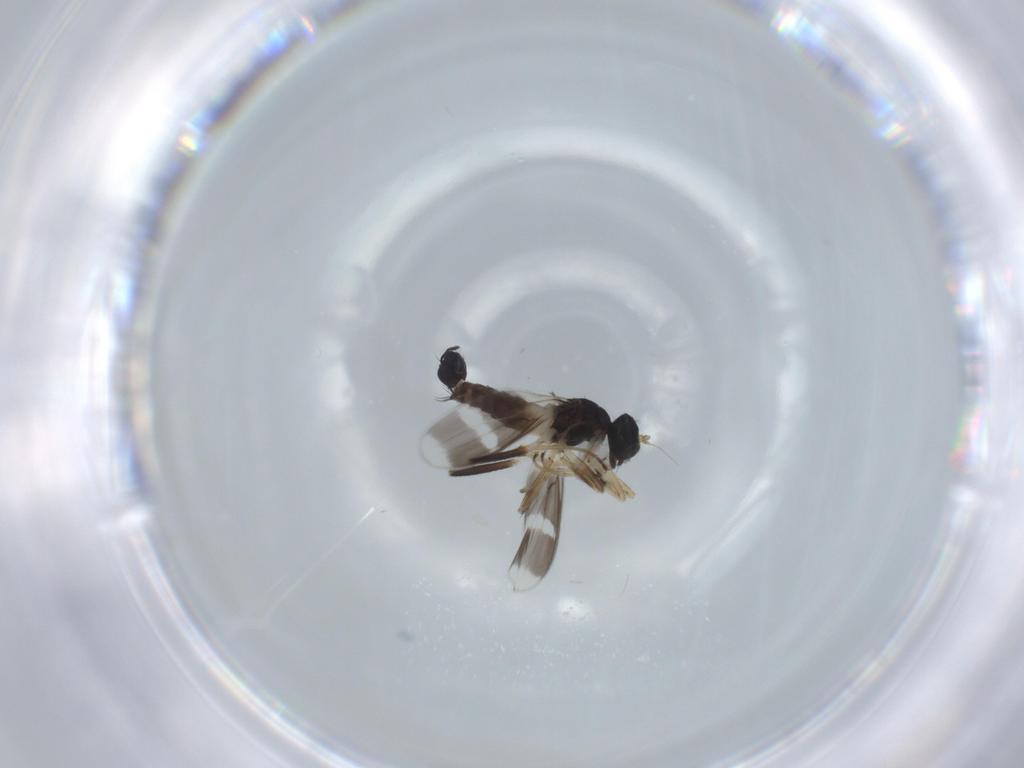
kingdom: Animalia
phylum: Arthropoda
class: Insecta
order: Diptera
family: Hybotidae
